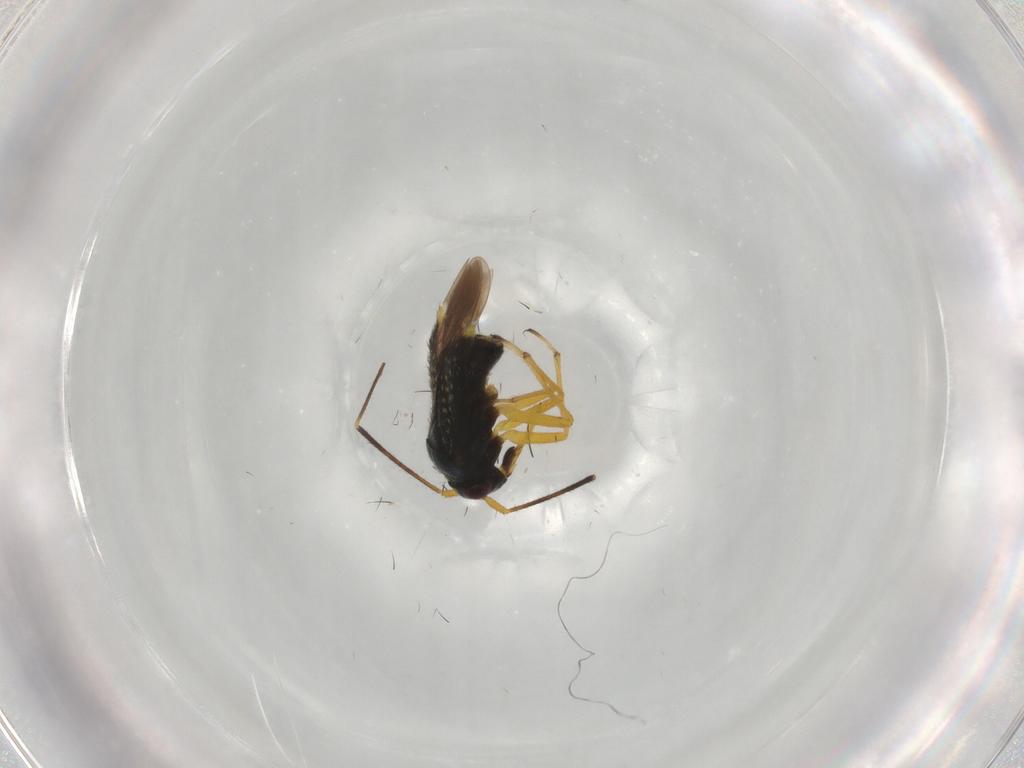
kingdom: Animalia
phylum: Arthropoda
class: Insecta
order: Hemiptera
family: Miridae
